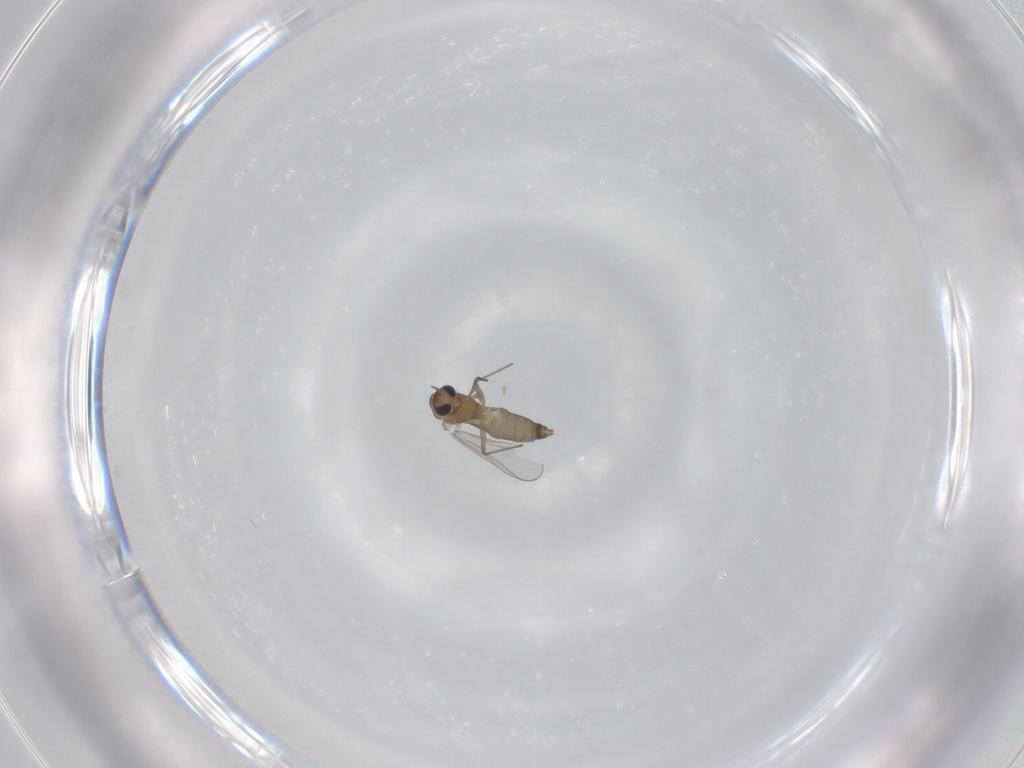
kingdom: Animalia
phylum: Arthropoda
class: Insecta
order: Diptera
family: Chironomidae
